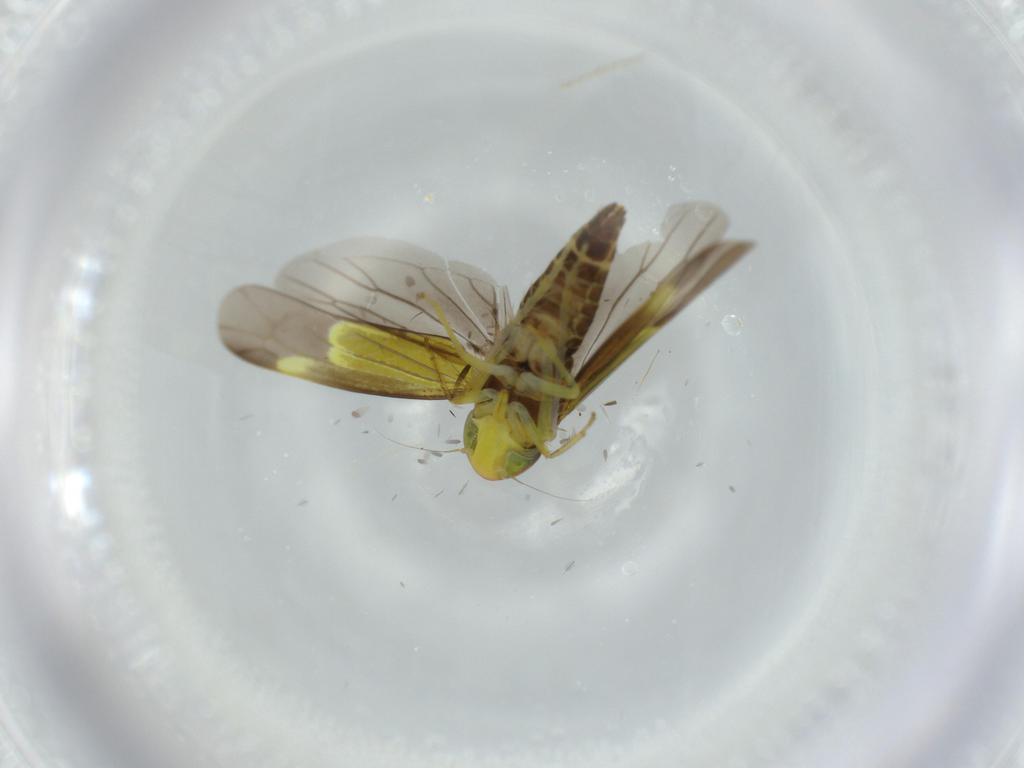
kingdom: Animalia
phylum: Arthropoda
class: Insecta
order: Hemiptera
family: Cicadellidae
